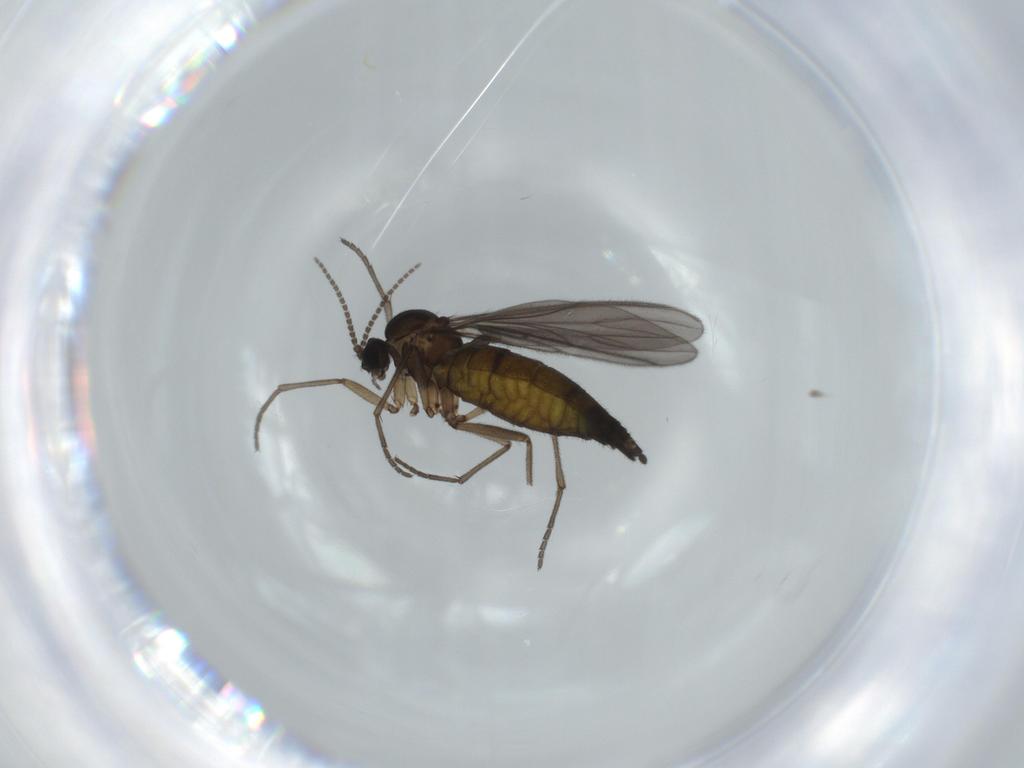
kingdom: Animalia
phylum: Arthropoda
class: Insecta
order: Diptera
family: Sciaridae
